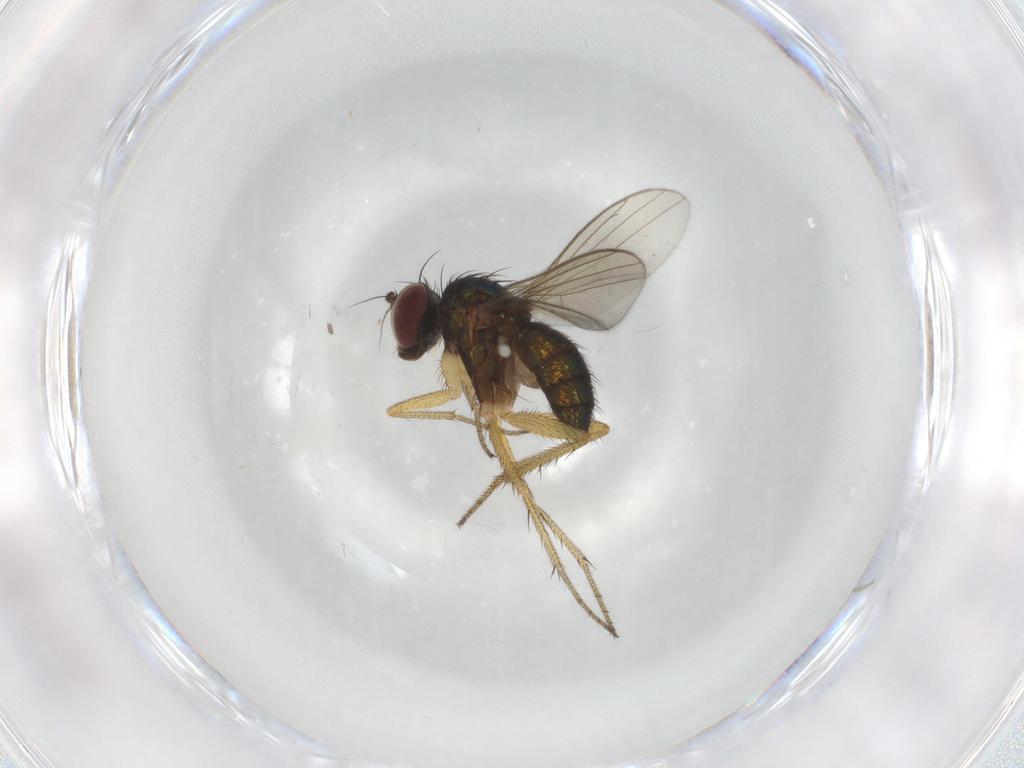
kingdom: Animalia
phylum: Arthropoda
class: Insecta
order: Diptera
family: Dolichopodidae
